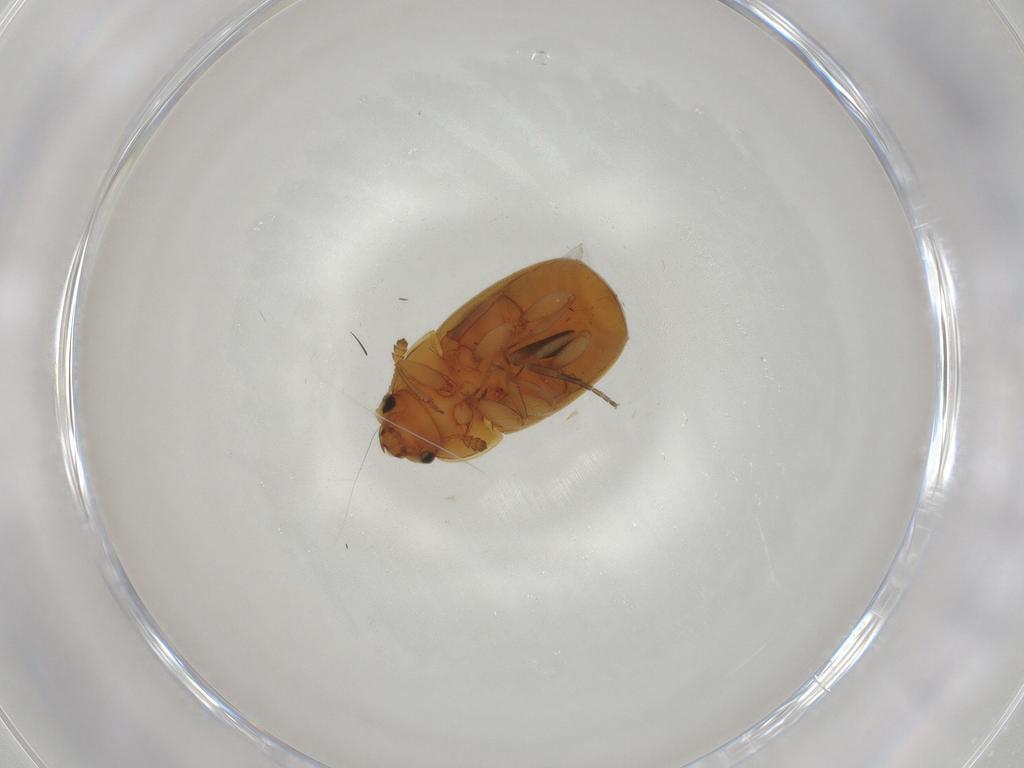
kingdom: Animalia
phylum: Arthropoda
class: Insecta
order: Coleoptera
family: Nitidulidae
